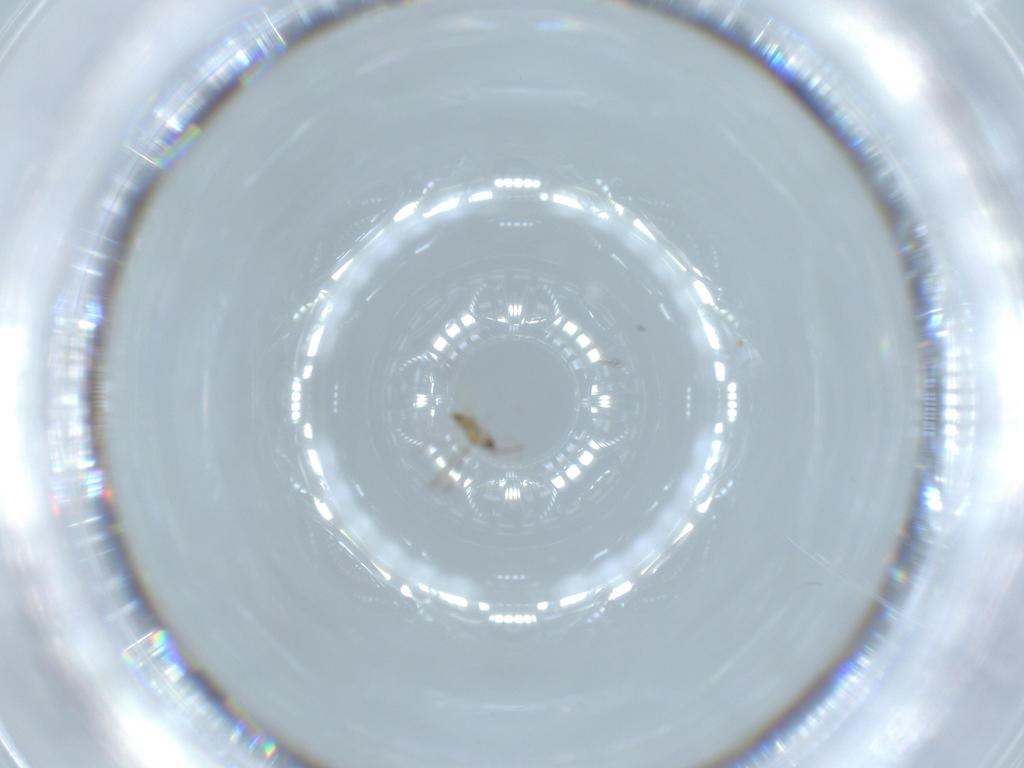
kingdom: Animalia
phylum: Arthropoda
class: Insecta
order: Hymenoptera
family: Mymaridae
